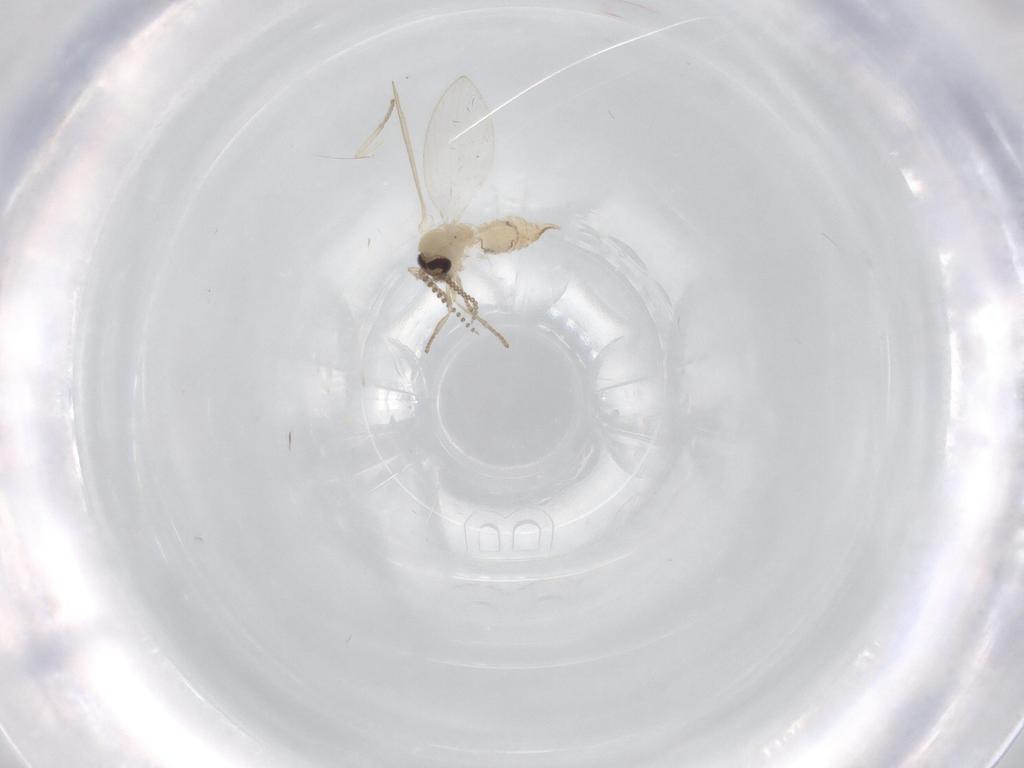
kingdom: Animalia
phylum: Arthropoda
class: Insecta
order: Diptera
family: Psychodidae
